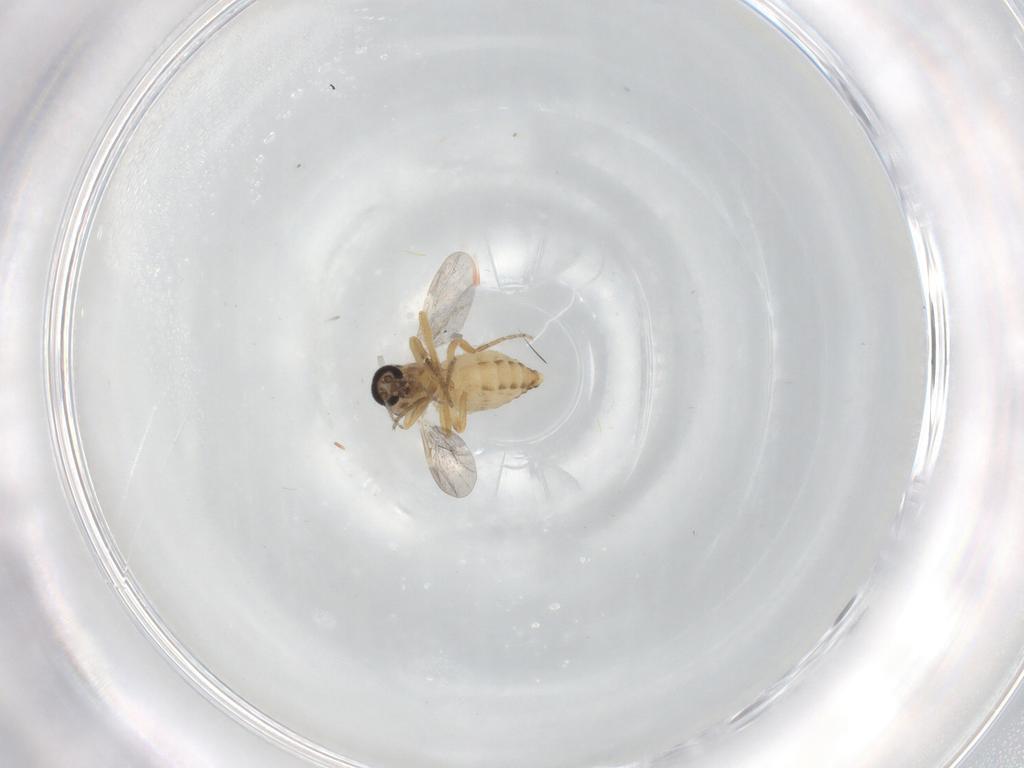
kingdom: Animalia
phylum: Arthropoda
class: Insecta
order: Diptera
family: Ceratopogonidae
